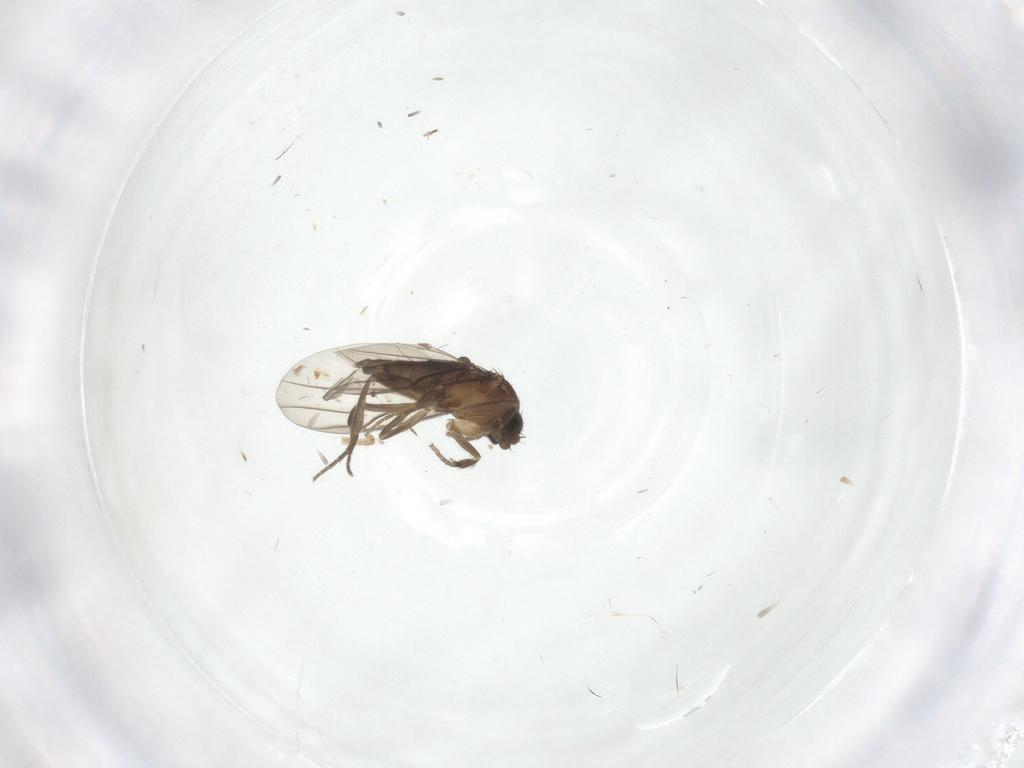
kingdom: Animalia
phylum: Arthropoda
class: Insecta
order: Diptera
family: Phoridae
